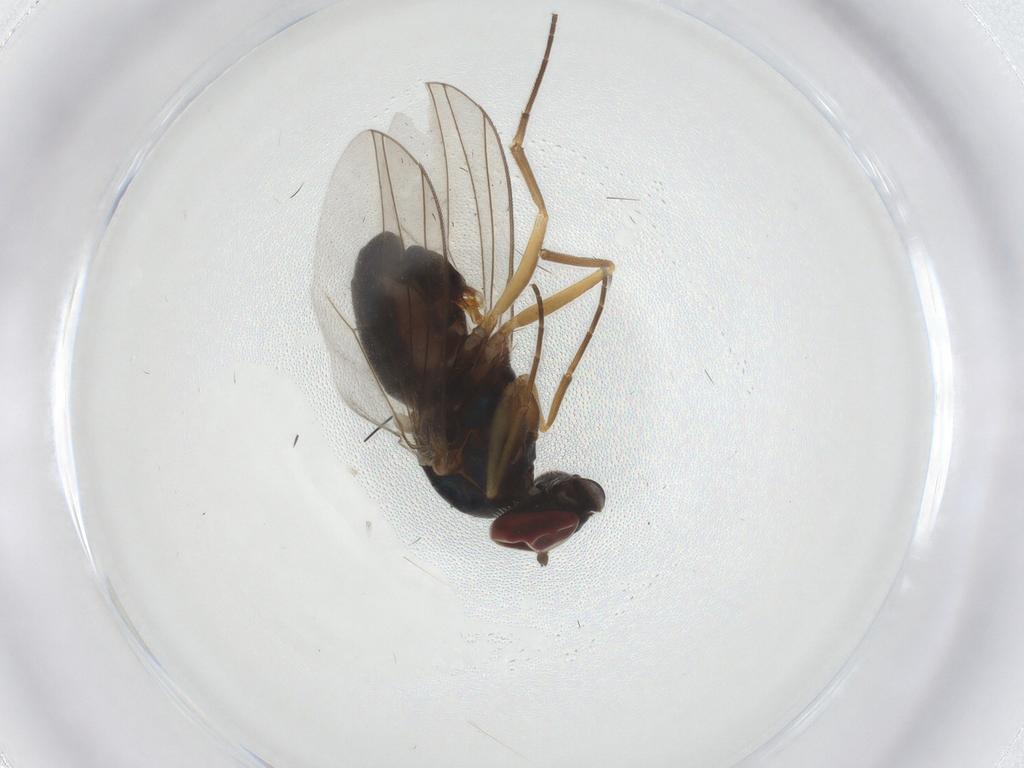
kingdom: Animalia
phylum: Arthropoda
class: Insecta
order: Diptera
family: Dolichopodidae
